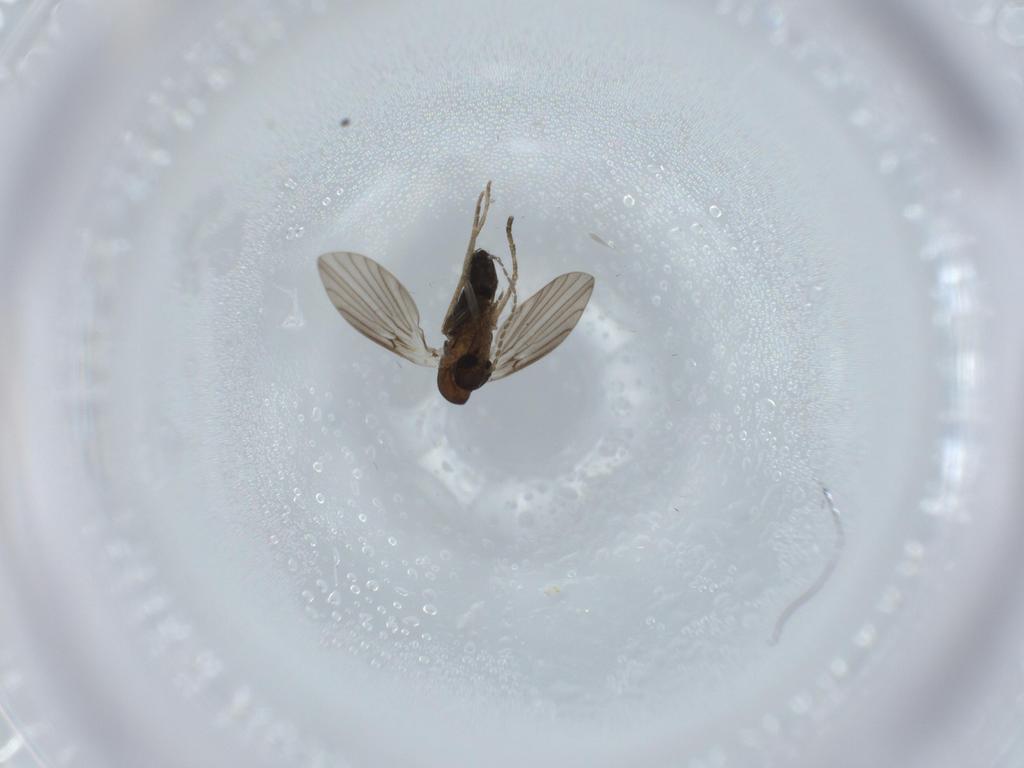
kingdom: Animalia
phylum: Arthropoda
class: Insecta
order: Diptera
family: Psychodidae
